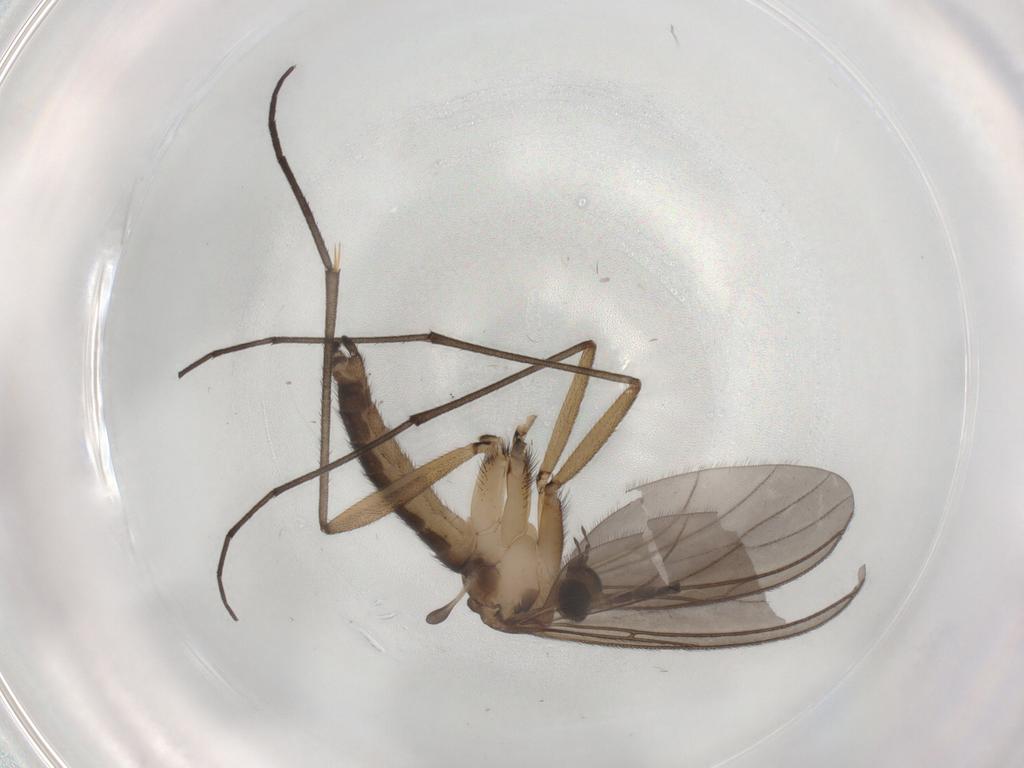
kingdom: Animalia
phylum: Arthropoda
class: Insecta
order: Diptera
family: Sciaridae
